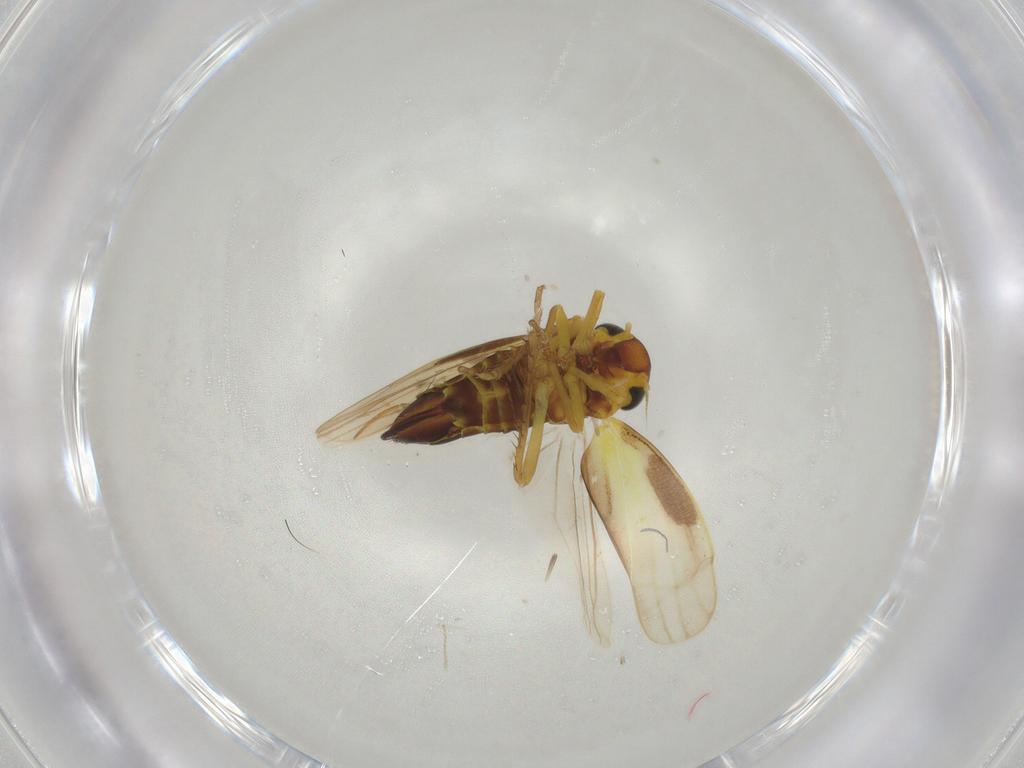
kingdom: Animalia
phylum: Arthropoda
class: Insecta
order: Hemiptera
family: Cicadellidae
